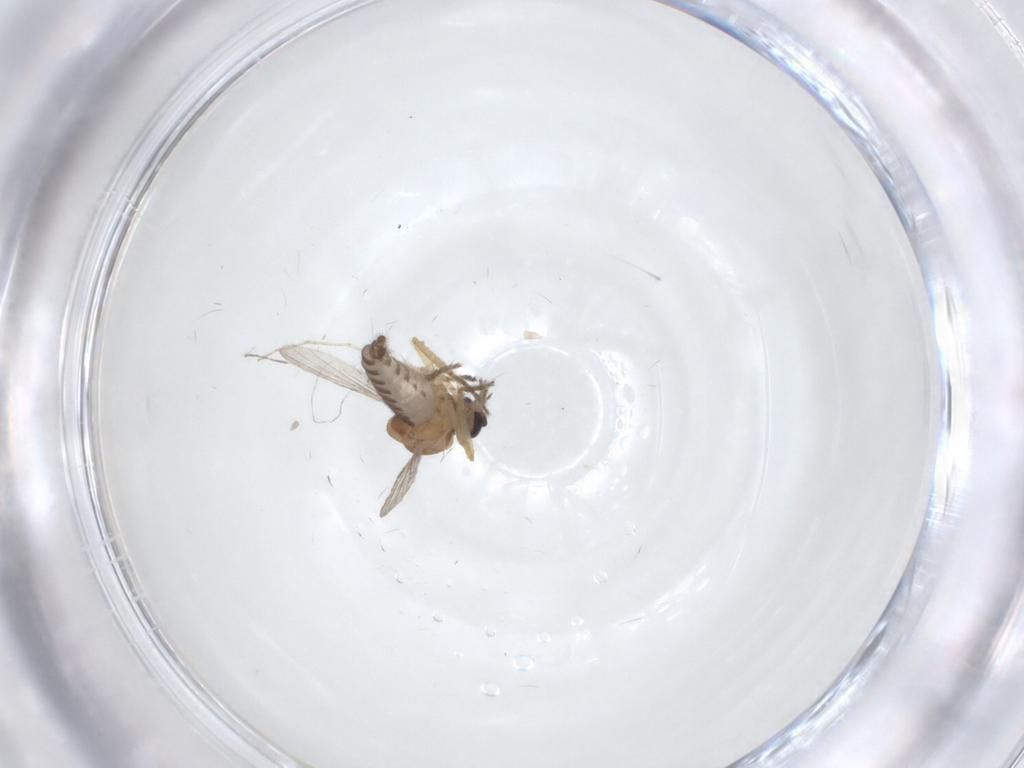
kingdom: Animalia
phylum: Arthropoda
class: Insecta
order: Diptera
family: Ceratopogonidae
